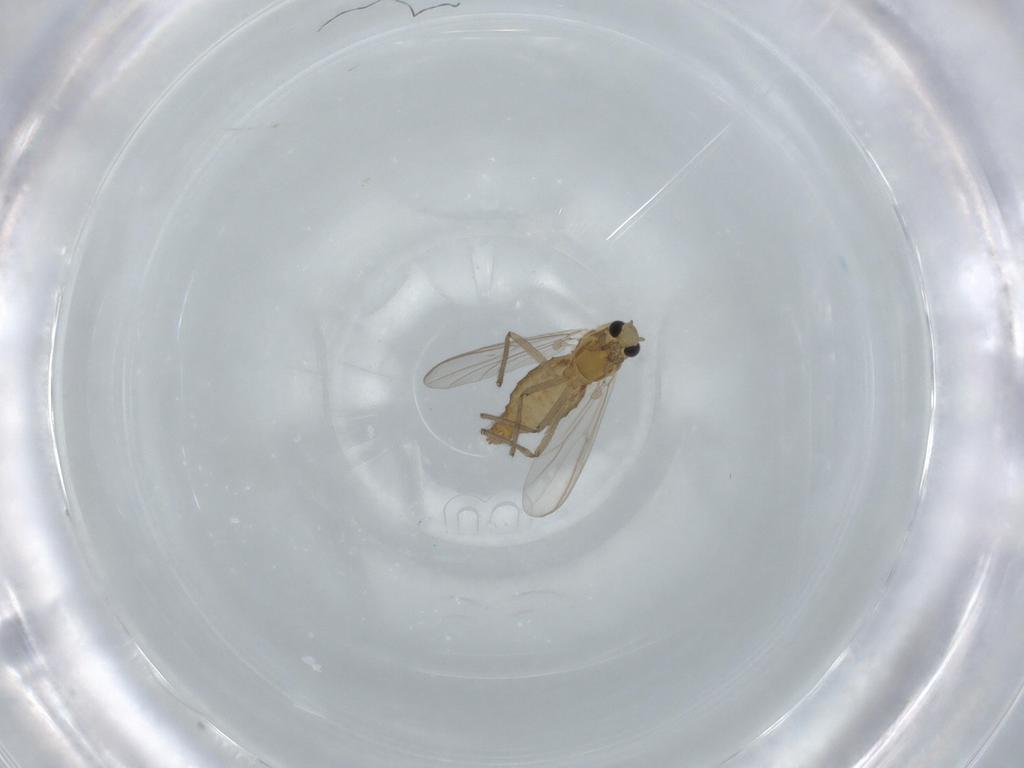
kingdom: Animalia
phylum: Arthropoda
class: Insecta
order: Diptera
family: Chironomidae
